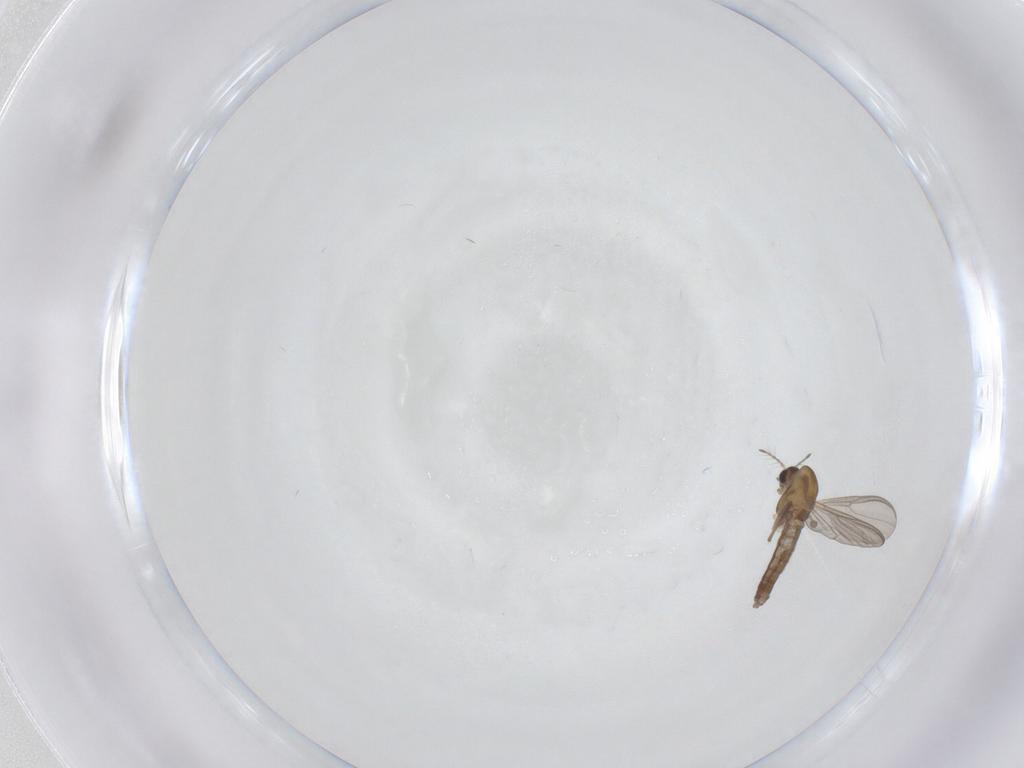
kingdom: Animalia
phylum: Arthropoda
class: Insecta
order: Diptera
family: Chironomidae
